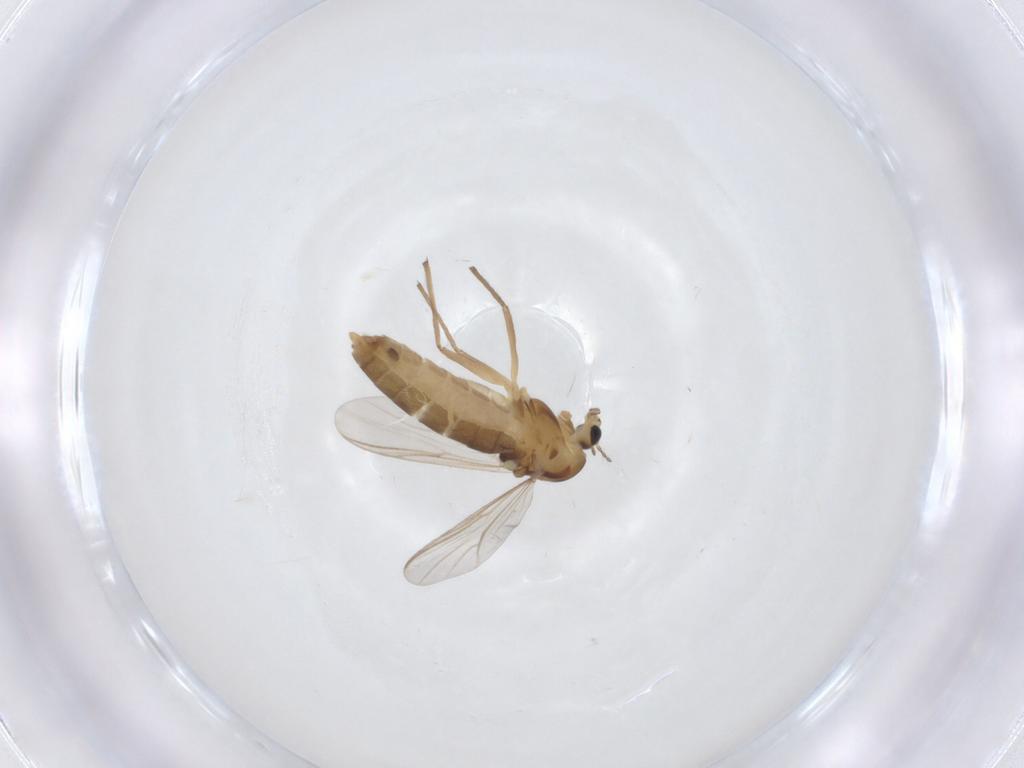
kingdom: Animalia
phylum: Arthropoda
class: Insecta
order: Diptera
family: Chironomidae
